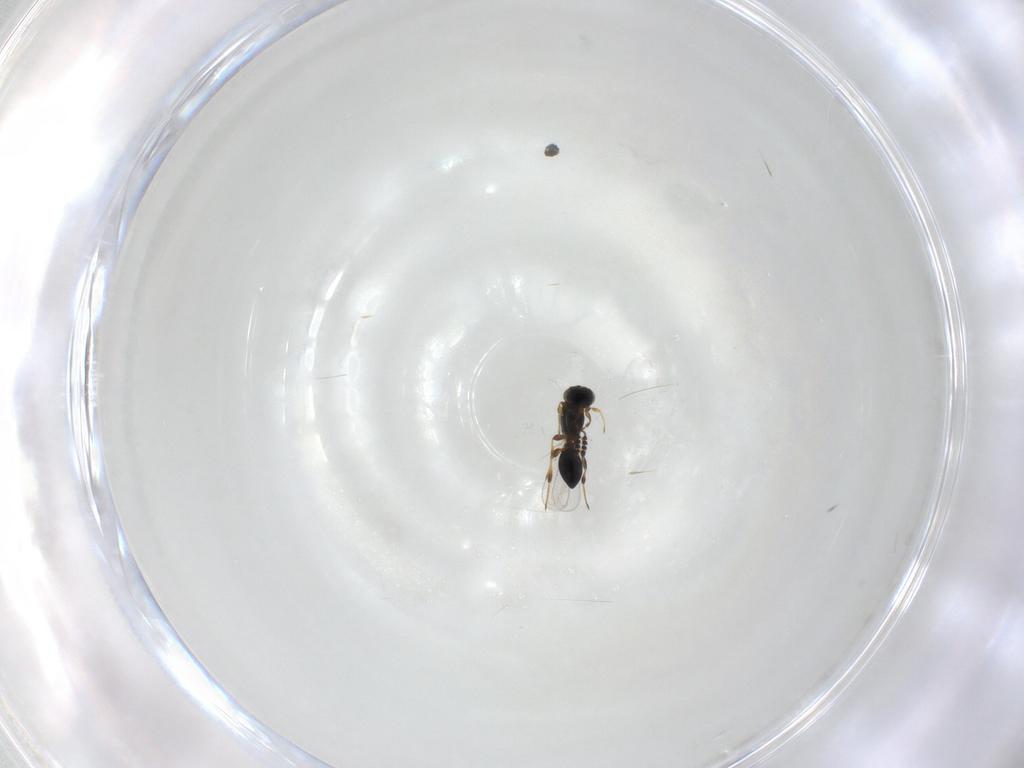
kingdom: Animalia
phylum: Arthropoda
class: Insecta
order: Hymenoptera
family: Platygastridae
